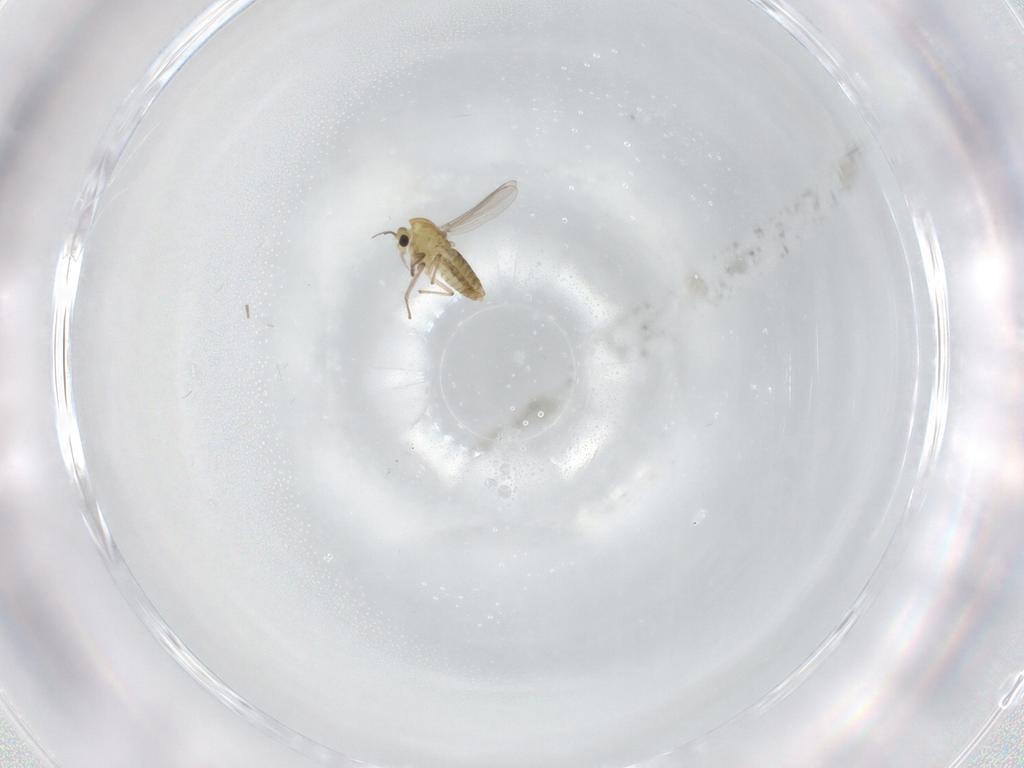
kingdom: Animalia
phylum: Arthropoda
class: Insecta
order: Diptera
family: Chironomidae
